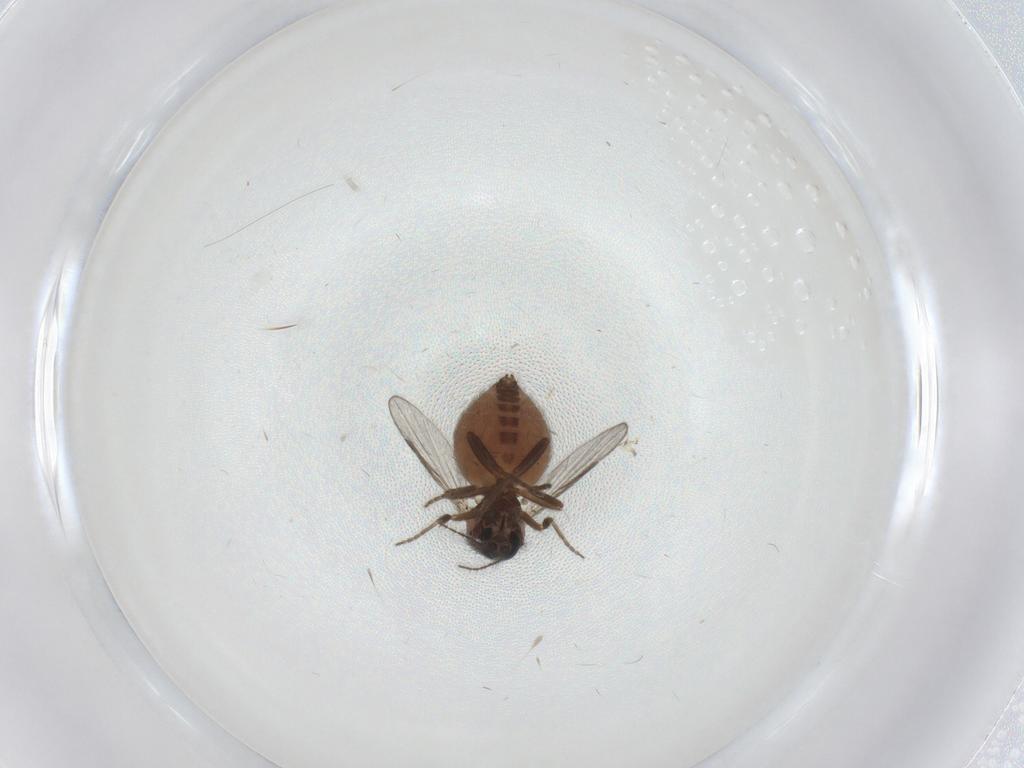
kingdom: Animalia
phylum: Arthropoda
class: Insecta
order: Diptera
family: Ceratopogonidae
